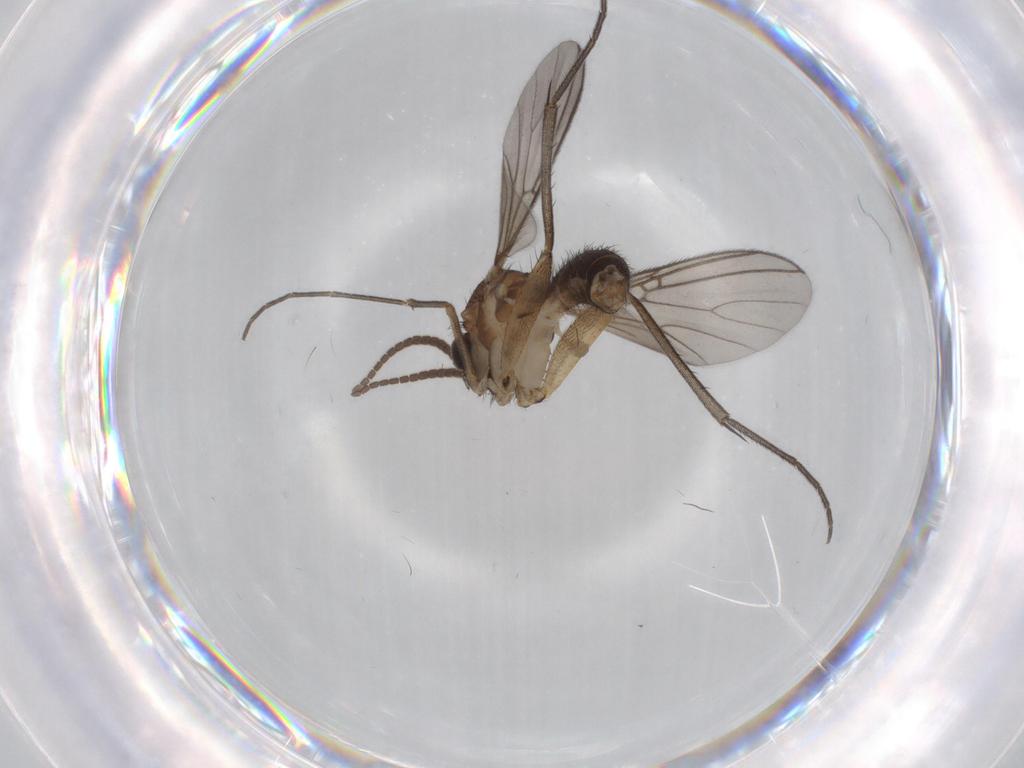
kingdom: Animalia
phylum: Arthropoda
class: Insecta
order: Diptera
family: Mycetophilidae
